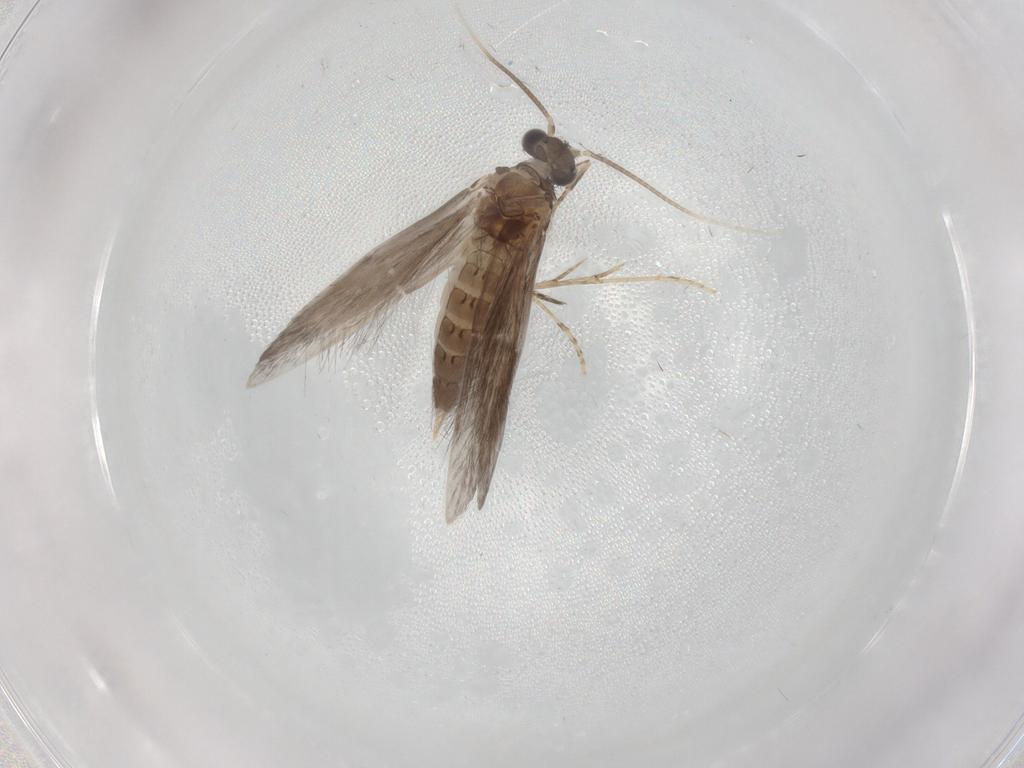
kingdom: Animalia
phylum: Arthropoda
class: Insecta
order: Trichoptera
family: Hydroptilidae
